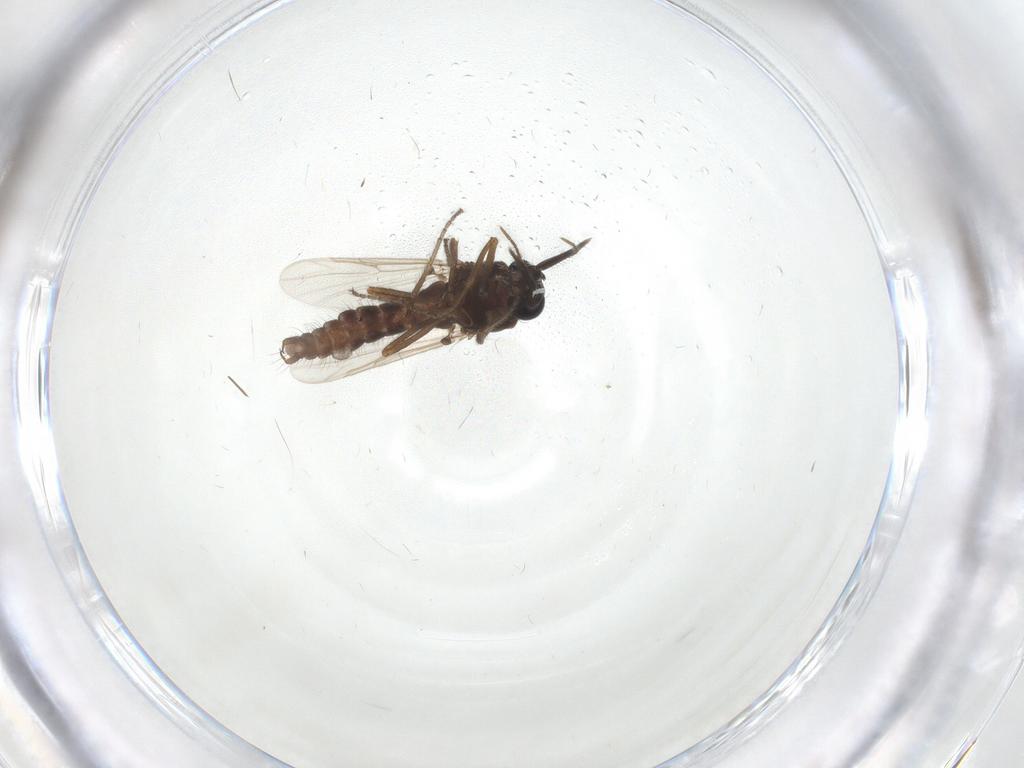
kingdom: Animalia
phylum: Arthropoda
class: Insecta
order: Diptera
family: Ceratopogonidae
